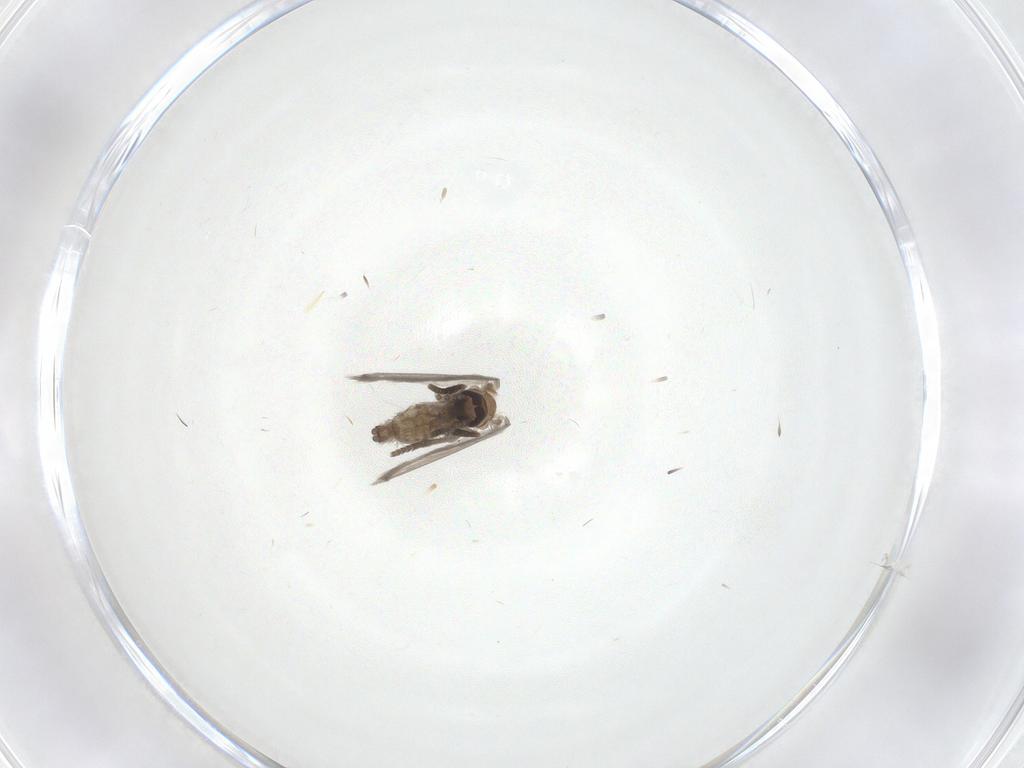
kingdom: Animalia
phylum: Arthropoda
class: Insecta
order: Diptera
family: Psychodidae
